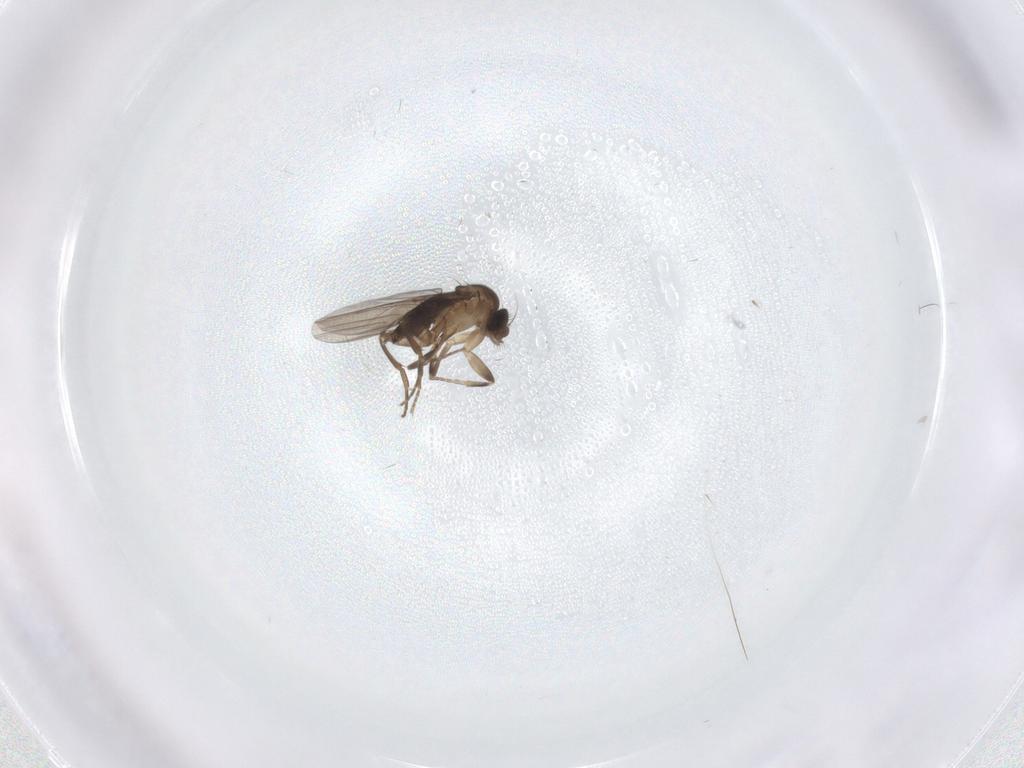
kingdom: Animalia
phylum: Arthropoda
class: Insecta
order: Diptera
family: Phoridae
